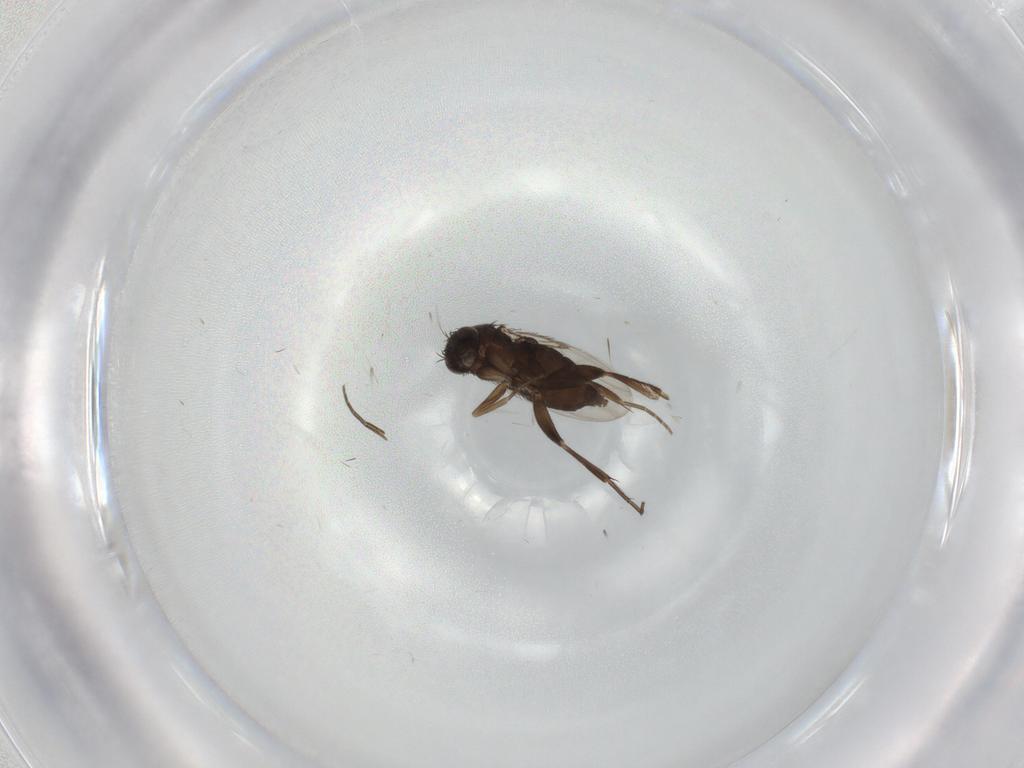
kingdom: Animalia
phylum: Arthropoda
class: Insecta
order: Diptera
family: Phoridae
